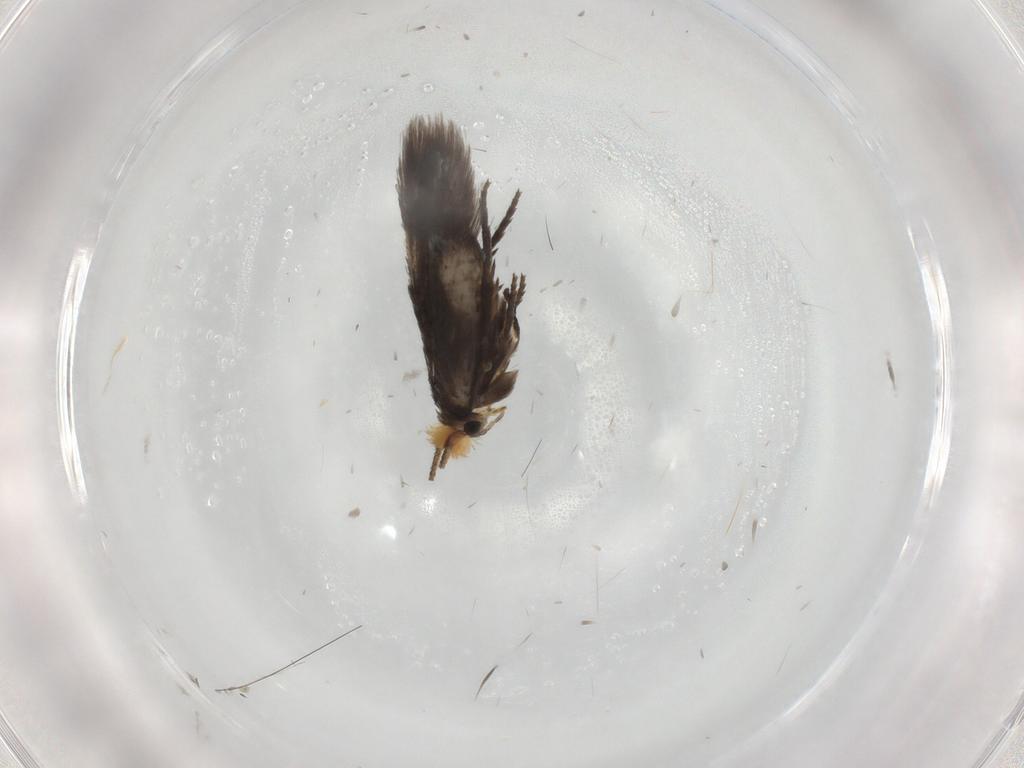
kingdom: Animalia
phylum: Arthropoda
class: Insecta
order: Lepidoptera
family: Nepticulidae
